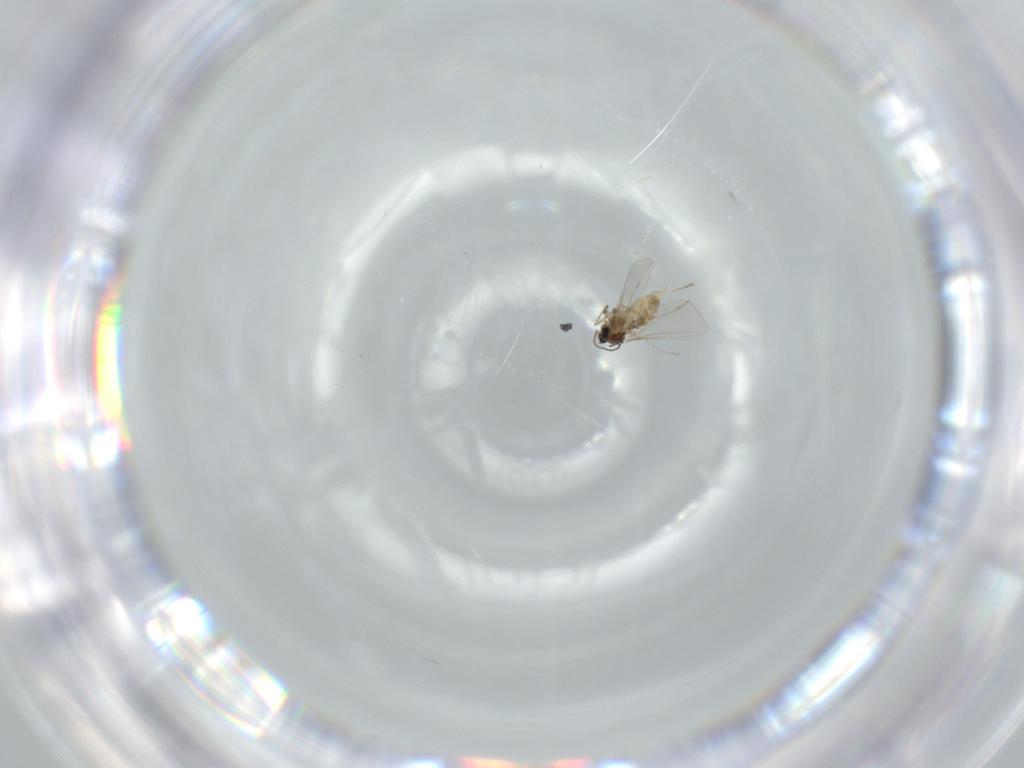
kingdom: Animalia
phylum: Arthropoda
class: Insecta
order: Diptera
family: Cecidomyiidae
